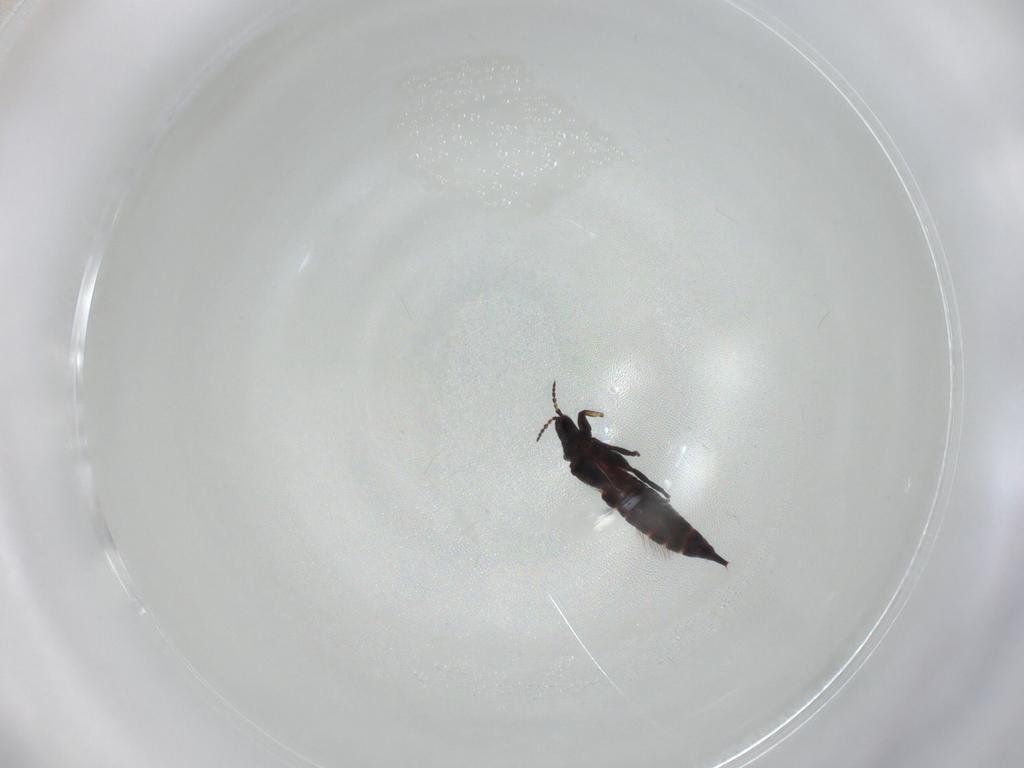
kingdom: Animalia
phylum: Arthropoda
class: Insecta
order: Thysanoptera
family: Phlaeothripidae
